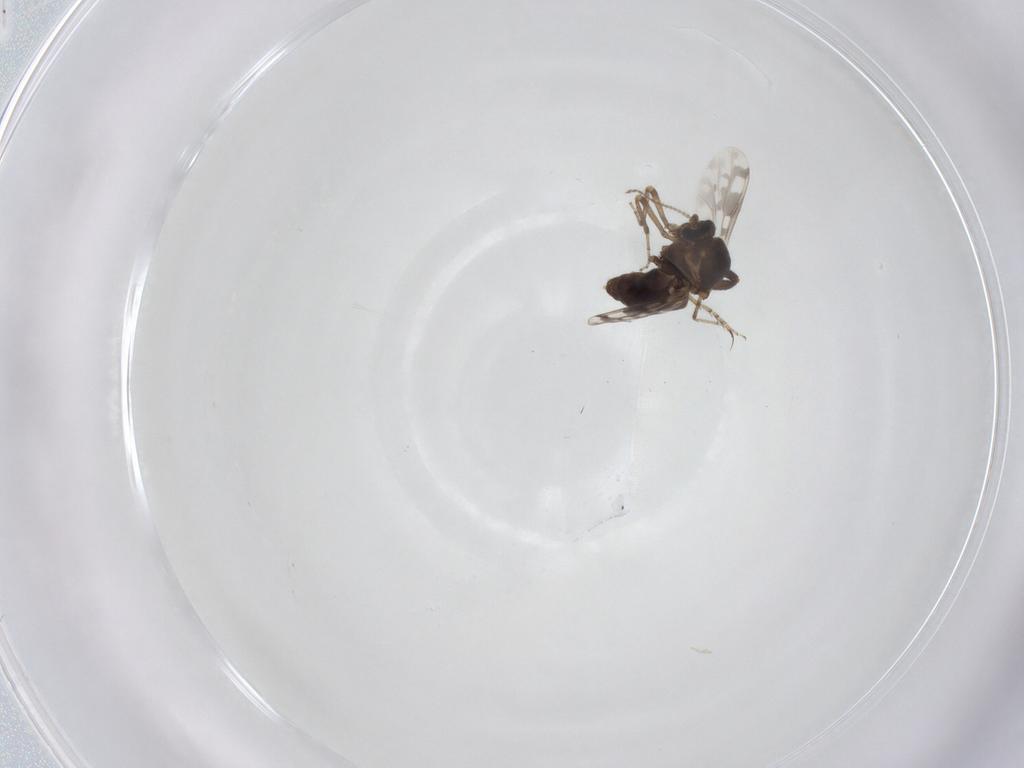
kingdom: Animalia
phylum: Arthropoda
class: Insecta
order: Diptera
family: Ceratopogonidae
